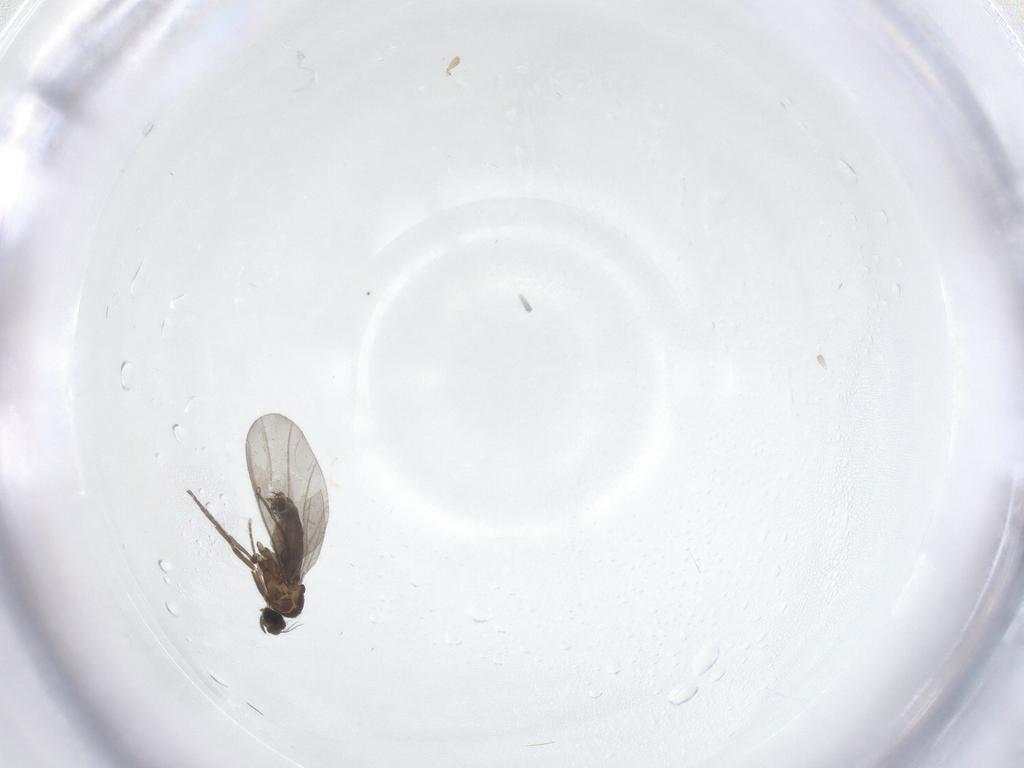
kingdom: Animalia
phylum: Arthropoda
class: Insecta
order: Diptera
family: Phoridae
